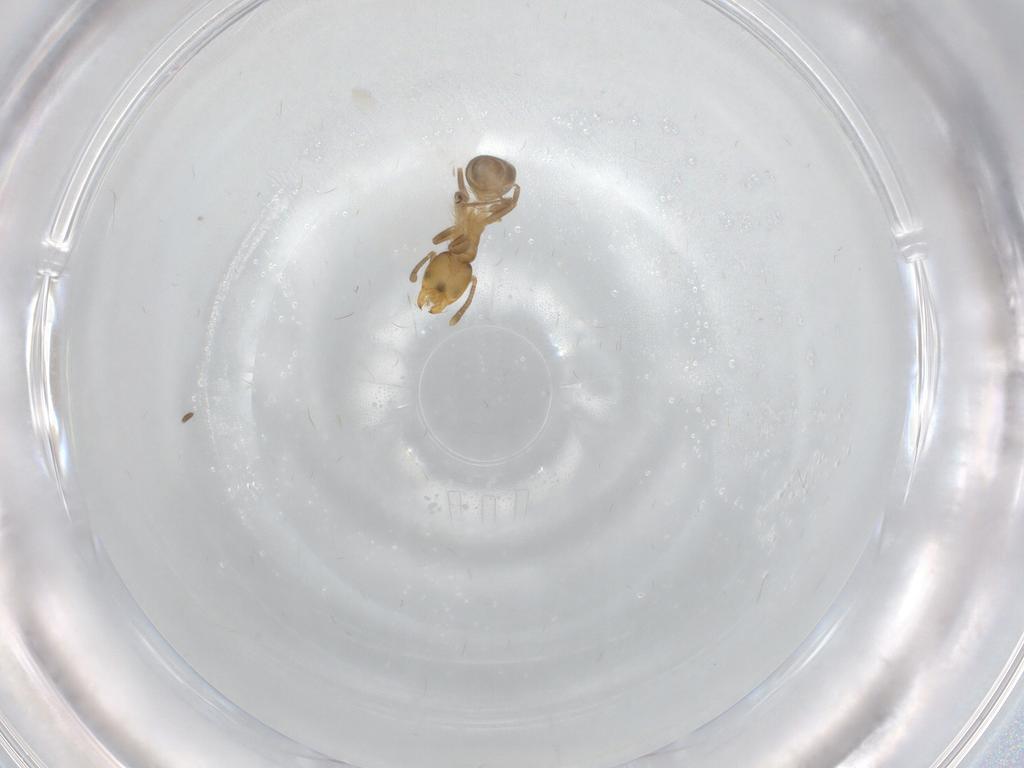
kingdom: Animalia
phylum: Arthropoda
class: Insecta
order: Hymenoptera
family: Formicidae
